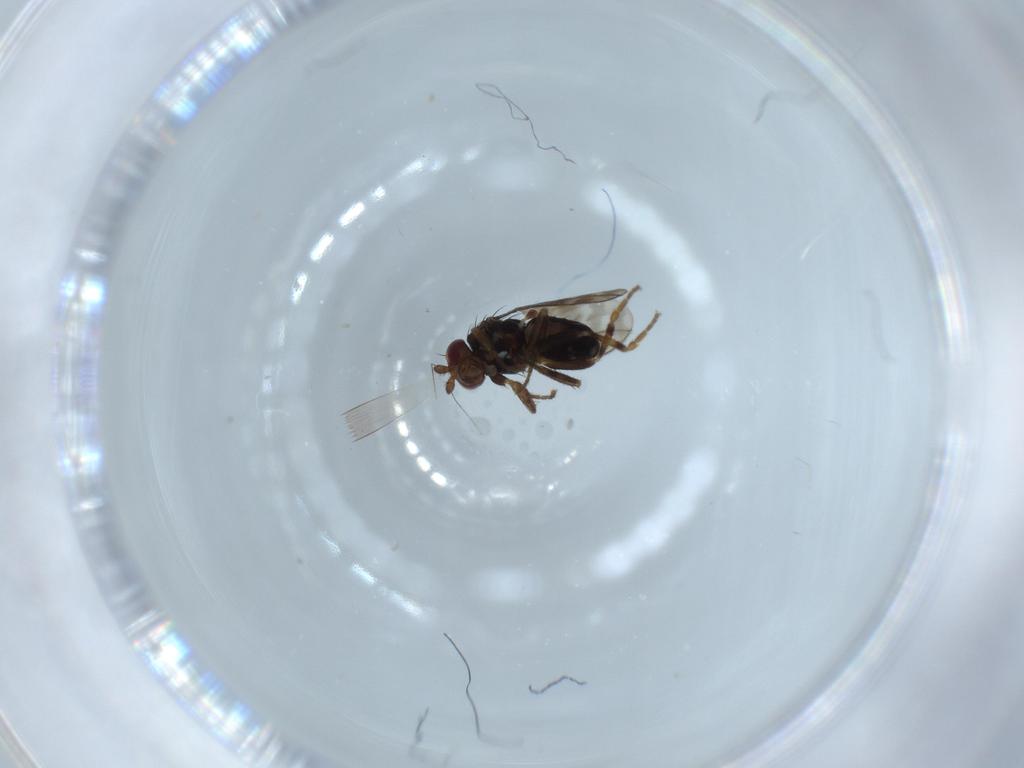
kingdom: Animalia
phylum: Arthropoda
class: Insecta
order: Diptera
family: Sphaeroceridae
